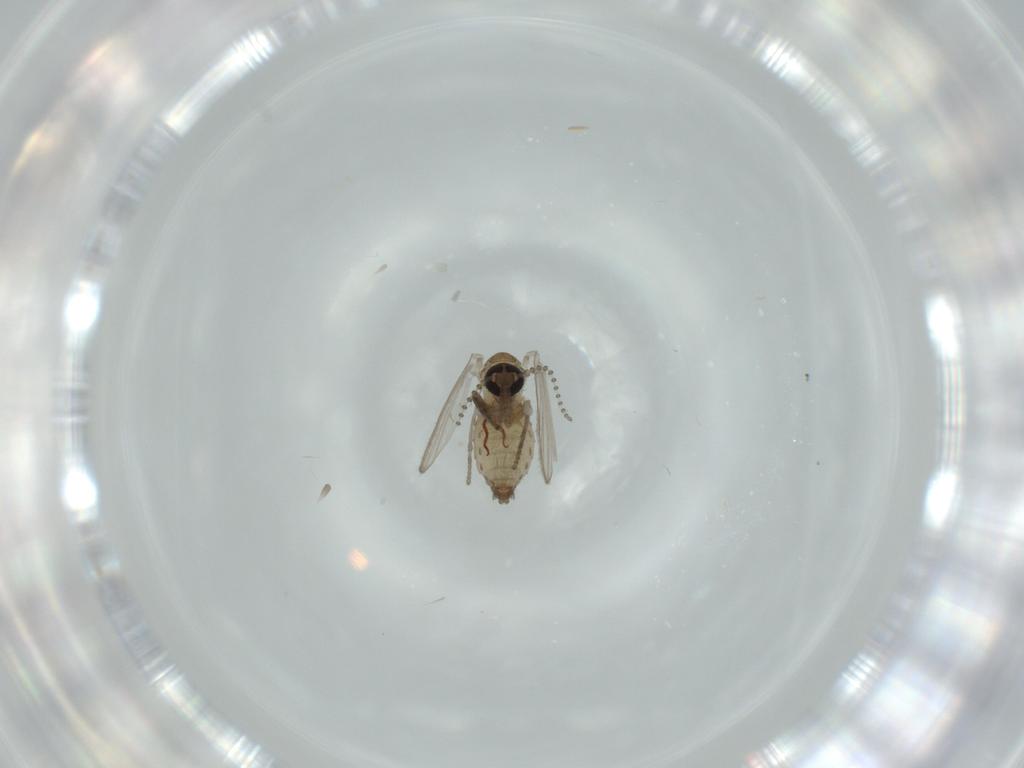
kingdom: Animalia
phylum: Arthropoda
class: Insecta
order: Diptera
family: Psychodidae
